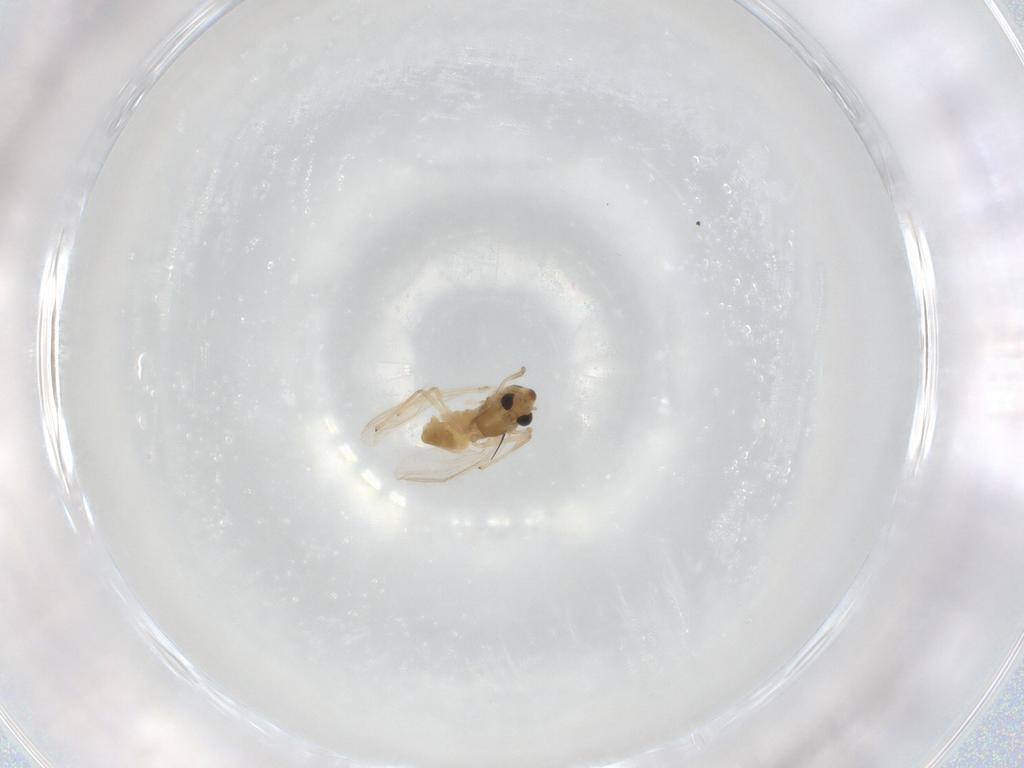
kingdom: Animalia
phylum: Arthropoda
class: Insecta
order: Diptera
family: Chironomidae
